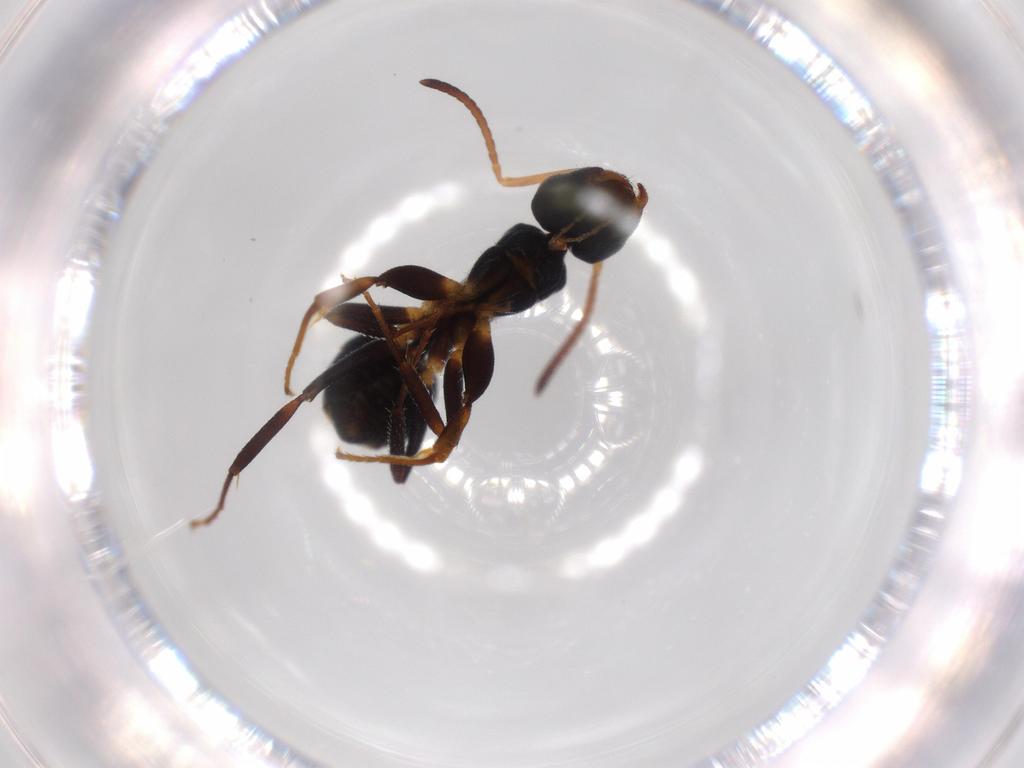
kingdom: Animalia
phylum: Arthropoda
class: Insecta
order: Hymenoptera
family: Formicidae
